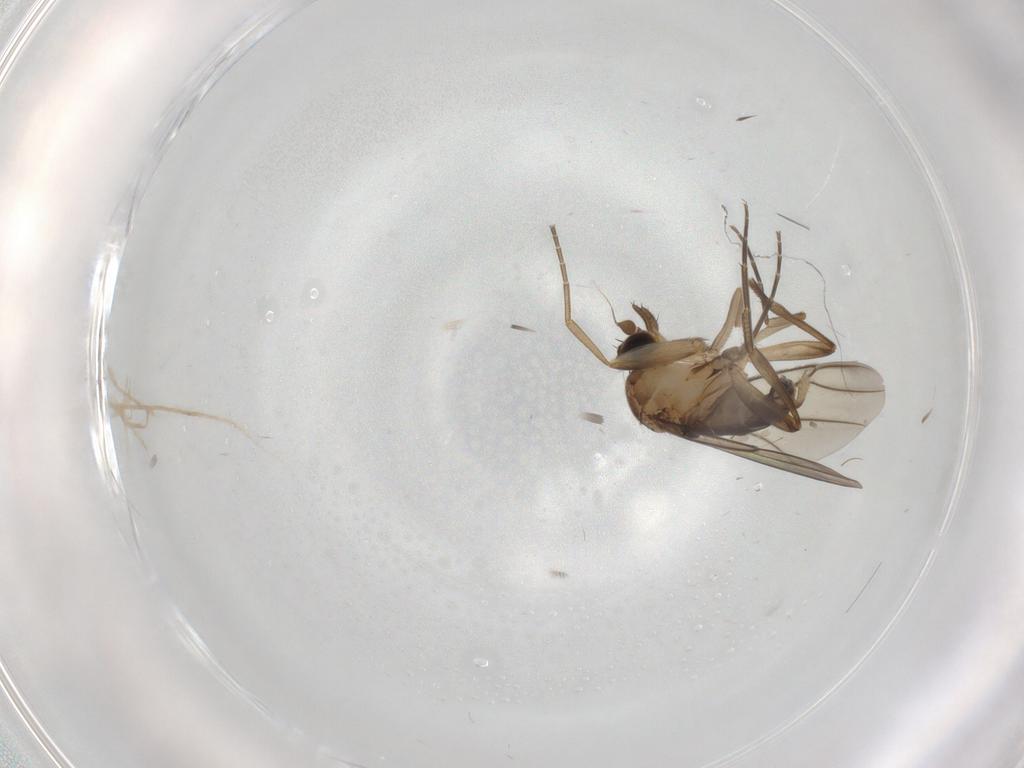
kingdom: Animalia
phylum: Arthropoda
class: Insecta
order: Diptera
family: Phoridae
